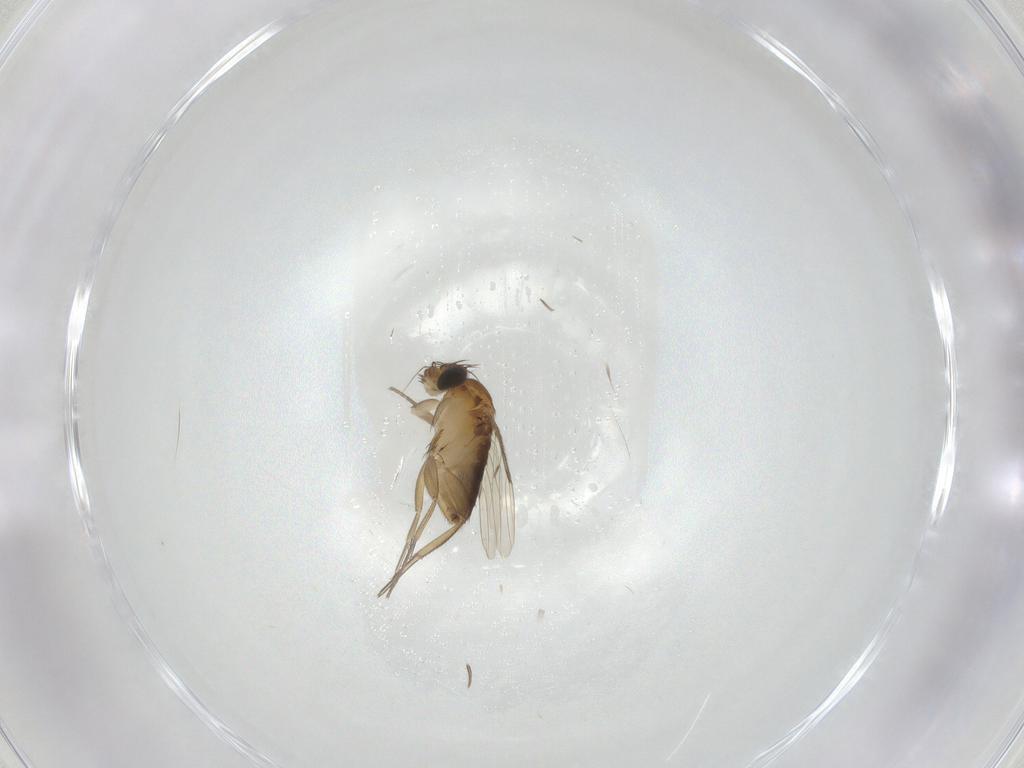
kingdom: Animalia
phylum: Arthropoda
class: Insecta
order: Diptera
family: Phoridae
